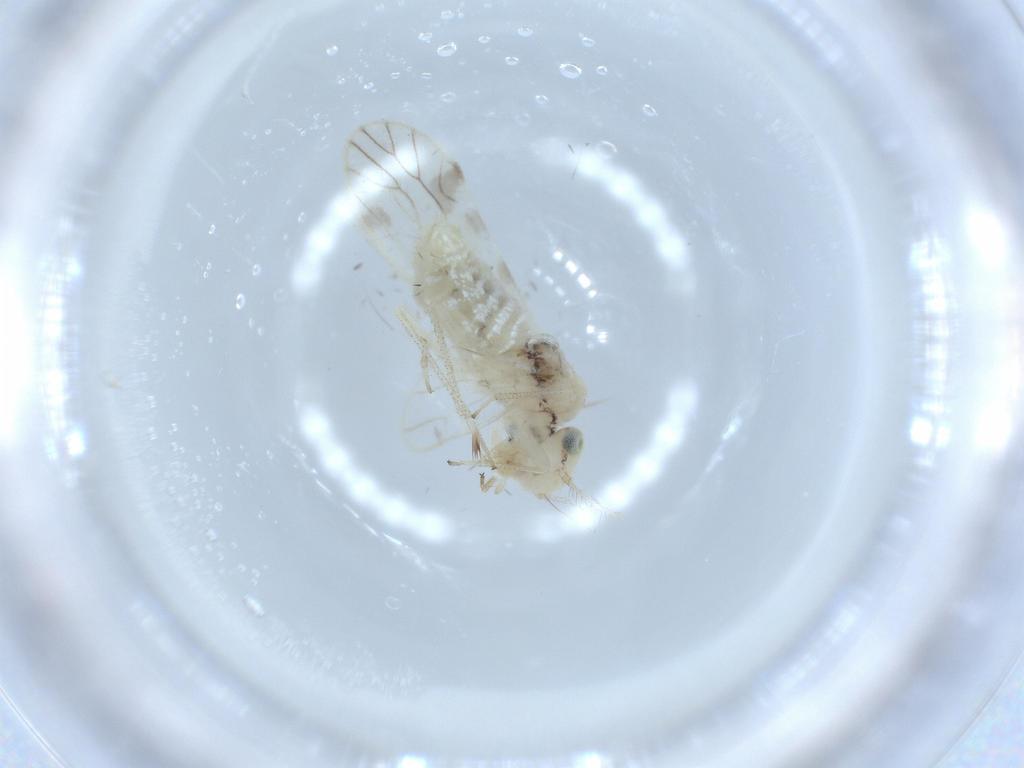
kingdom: Animalia
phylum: Arthropoda
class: Insecta
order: Psocodea
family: Caeciliusidae
